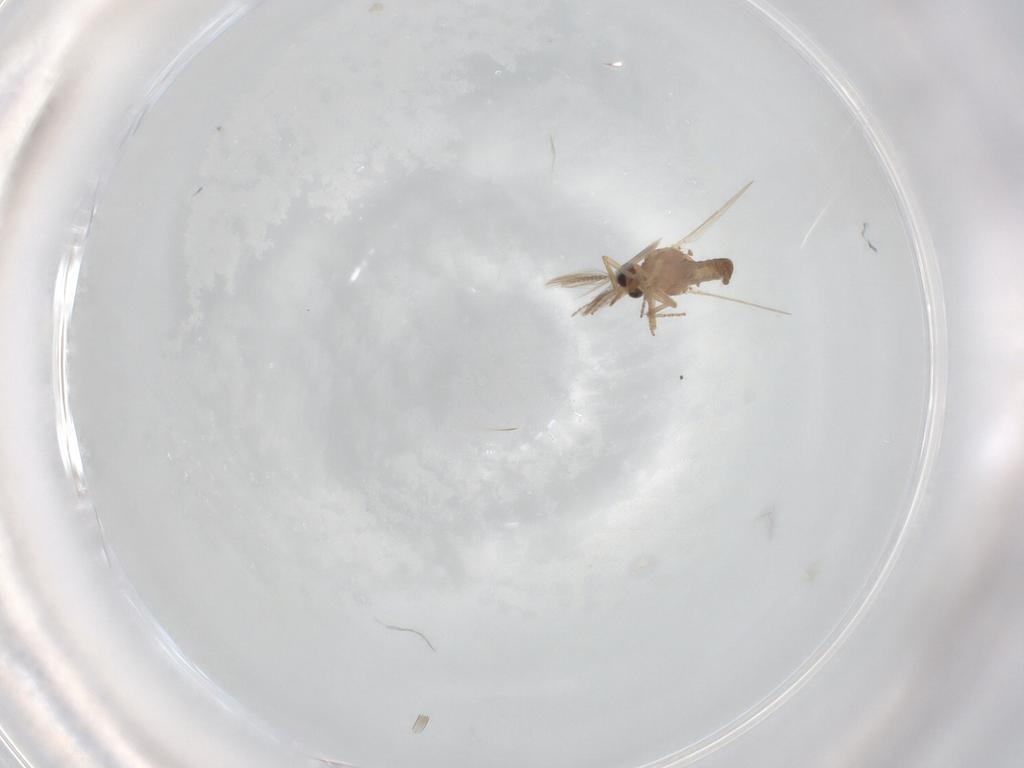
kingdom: Animalia
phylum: Arthropoda
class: Insecta
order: Diptera
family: Ceratopogonidae
